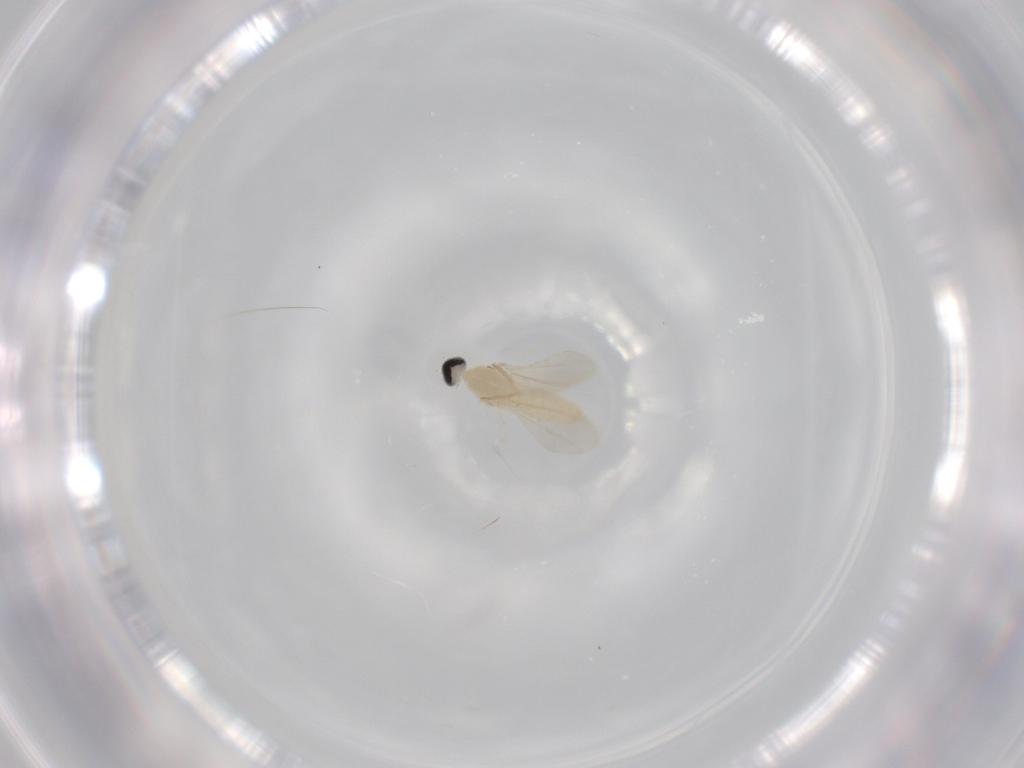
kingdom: Animalia
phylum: Arthropoda
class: Insecta
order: Diptera
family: Cecidomyiidae
